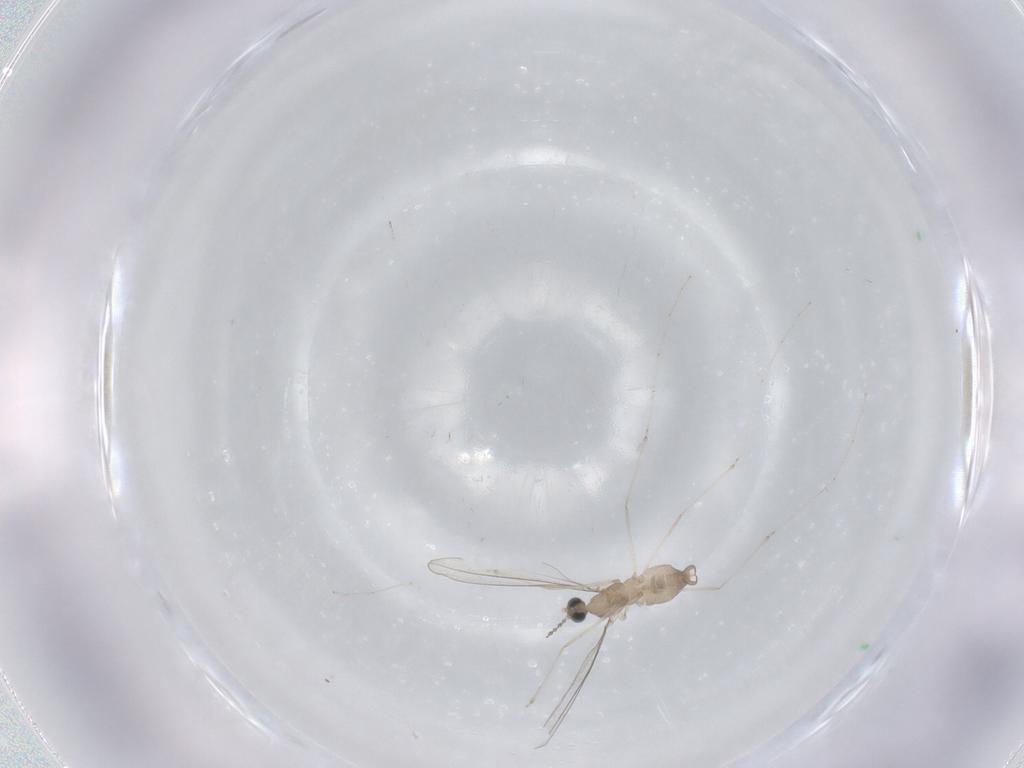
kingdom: Animalia
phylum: Arthropoda
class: Insecta
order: Diptera
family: Cecidomyiidae
